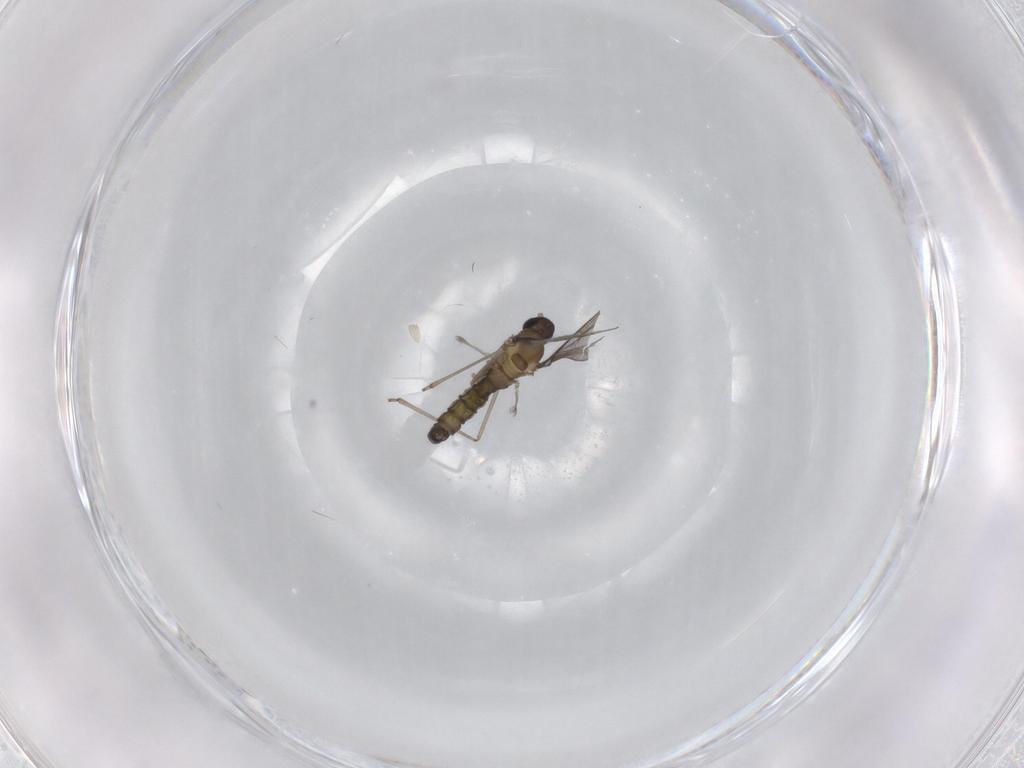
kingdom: Animalia
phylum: Arthropoda
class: Insecta
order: Diptera
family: Cecidomyiidae
